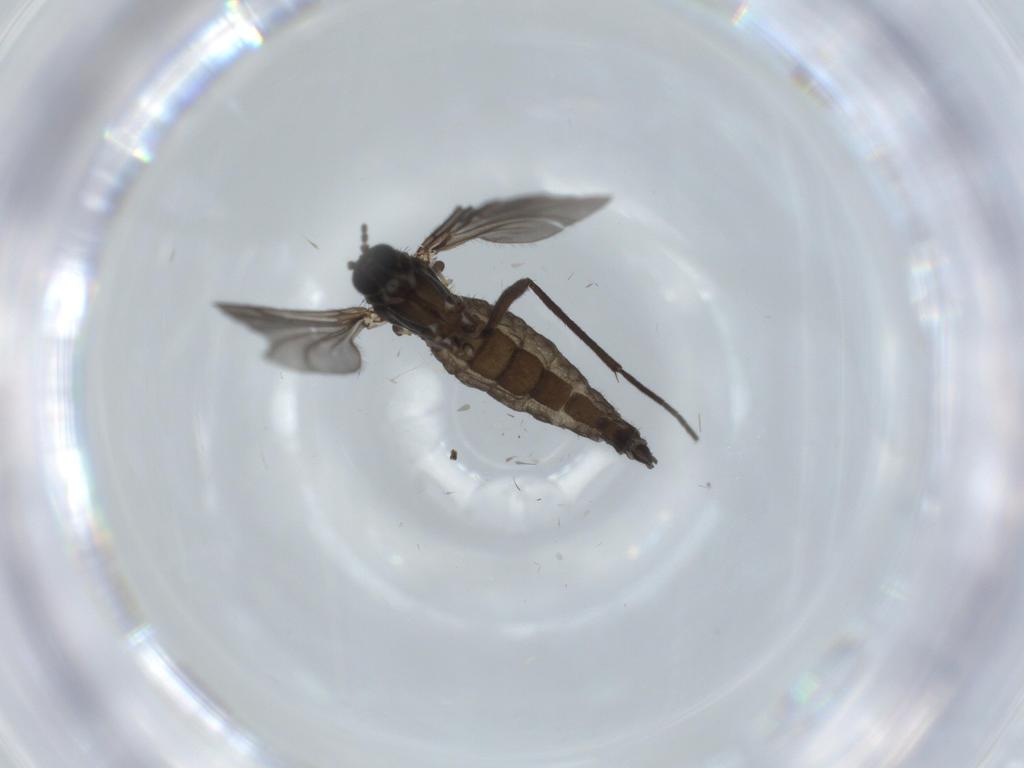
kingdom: Animalia
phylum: Arthropoda
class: Insecta
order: Diptera
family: Sciaridae
